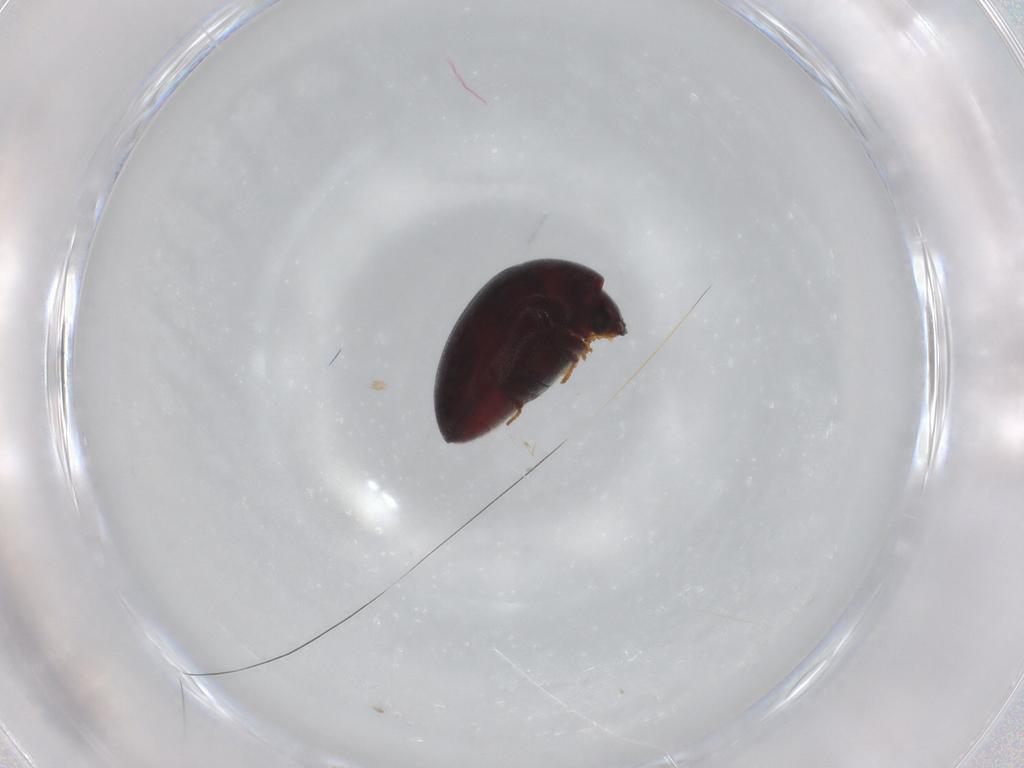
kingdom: Animalia
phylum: Arthropoda
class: Insecta
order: Coleoptera
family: Ptinidae
